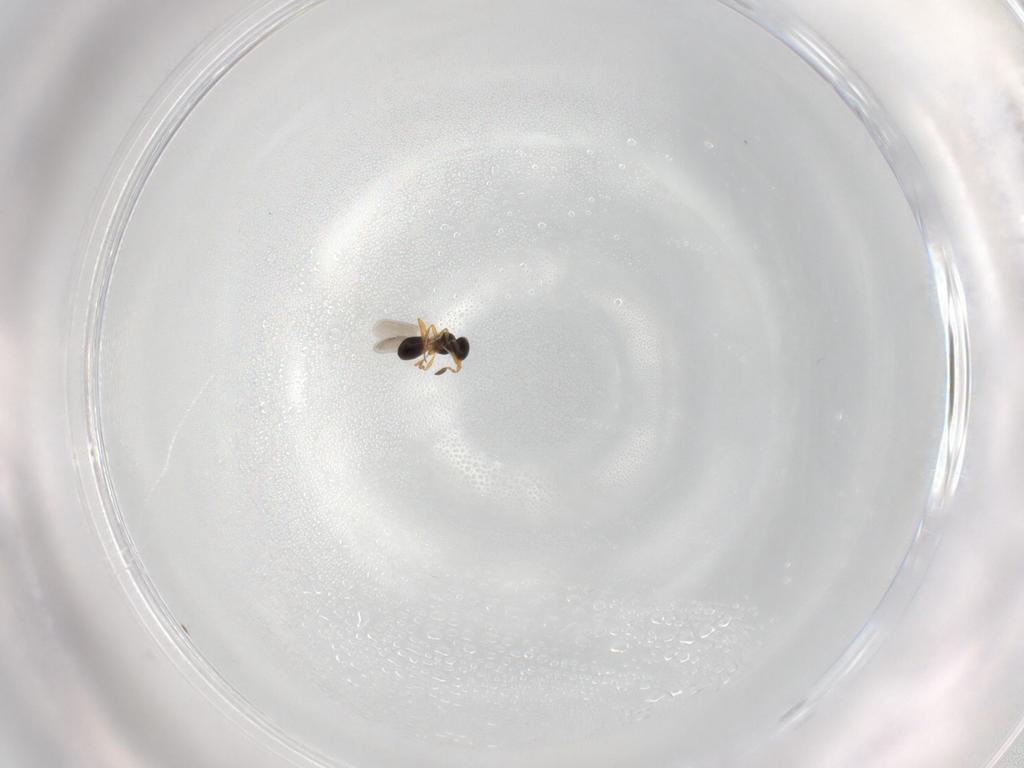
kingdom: Animalia
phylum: Arthropoda
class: Insecta
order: Hymenoptera
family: Platygastridae
